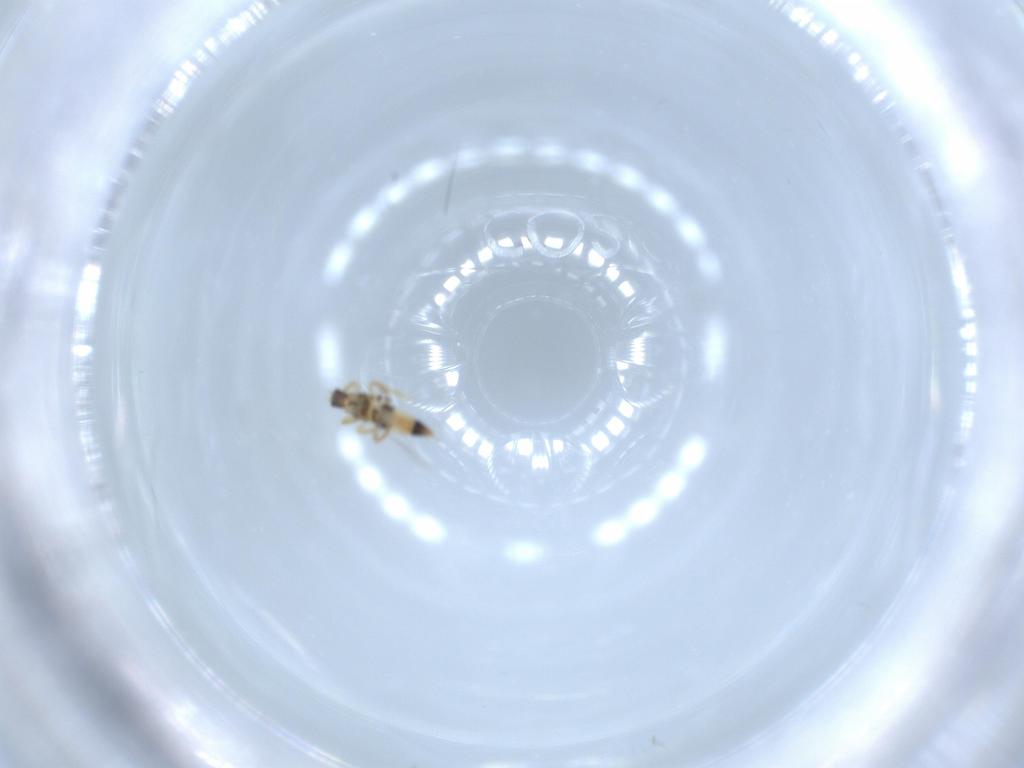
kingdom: Animalia
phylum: Arthropoda
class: Insecta
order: Thysanoptera
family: Thripidae
